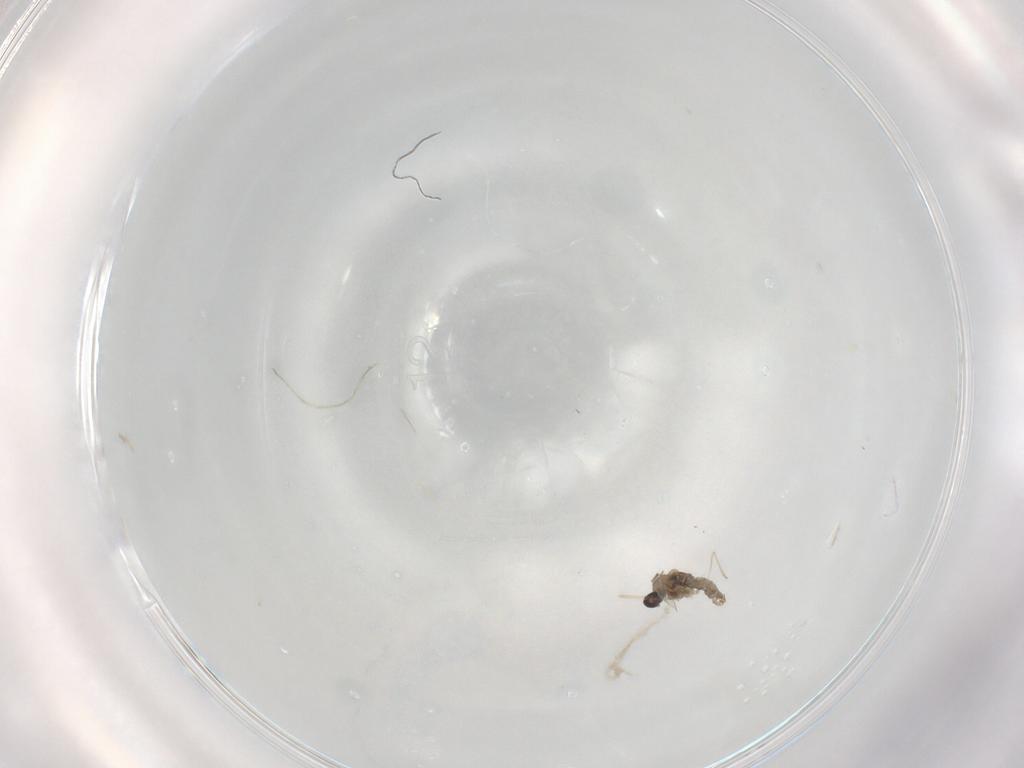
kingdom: Animalia
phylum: Arthropoda
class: Insecta
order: Diptera
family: Cecidomyiidae
